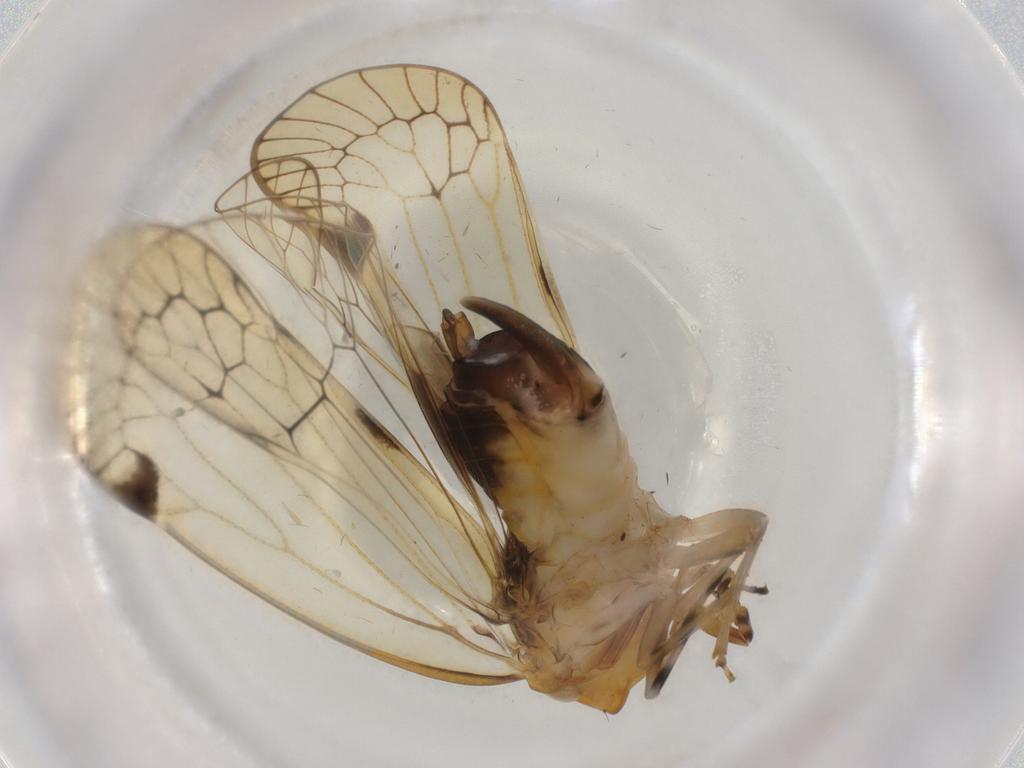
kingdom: Animalia
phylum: Arthropoda
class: Insecta
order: Hemiptera
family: Cixiidae
